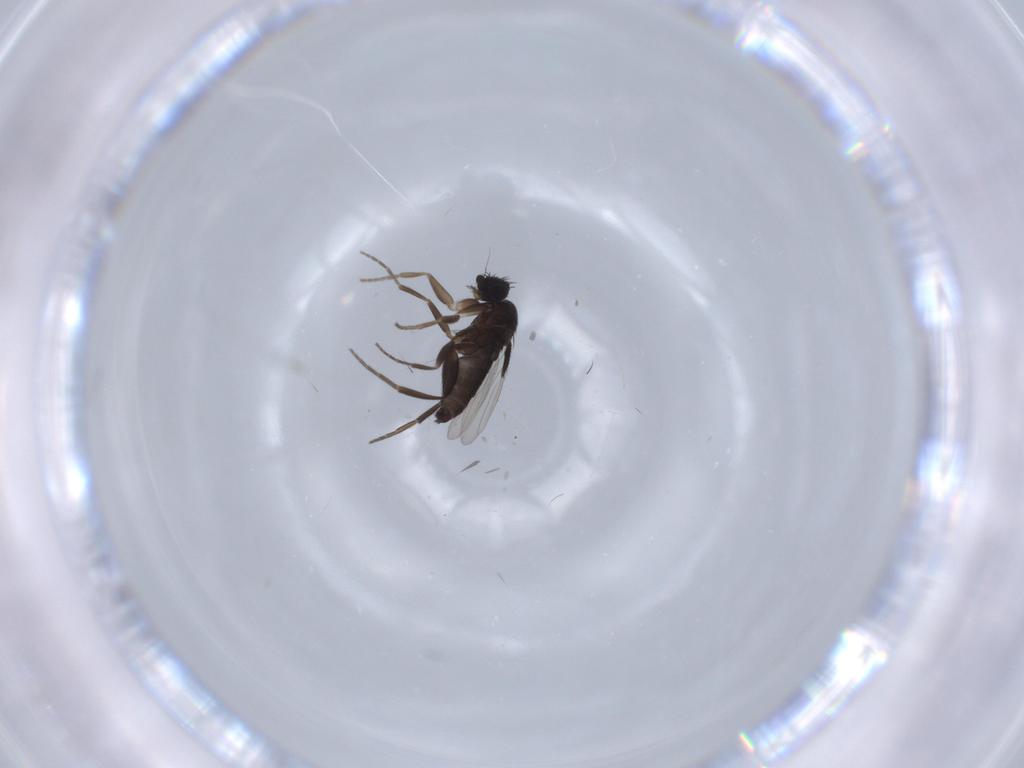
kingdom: Animalia
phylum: Arthropoda
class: Insecta
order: Diptera
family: Phoridae
